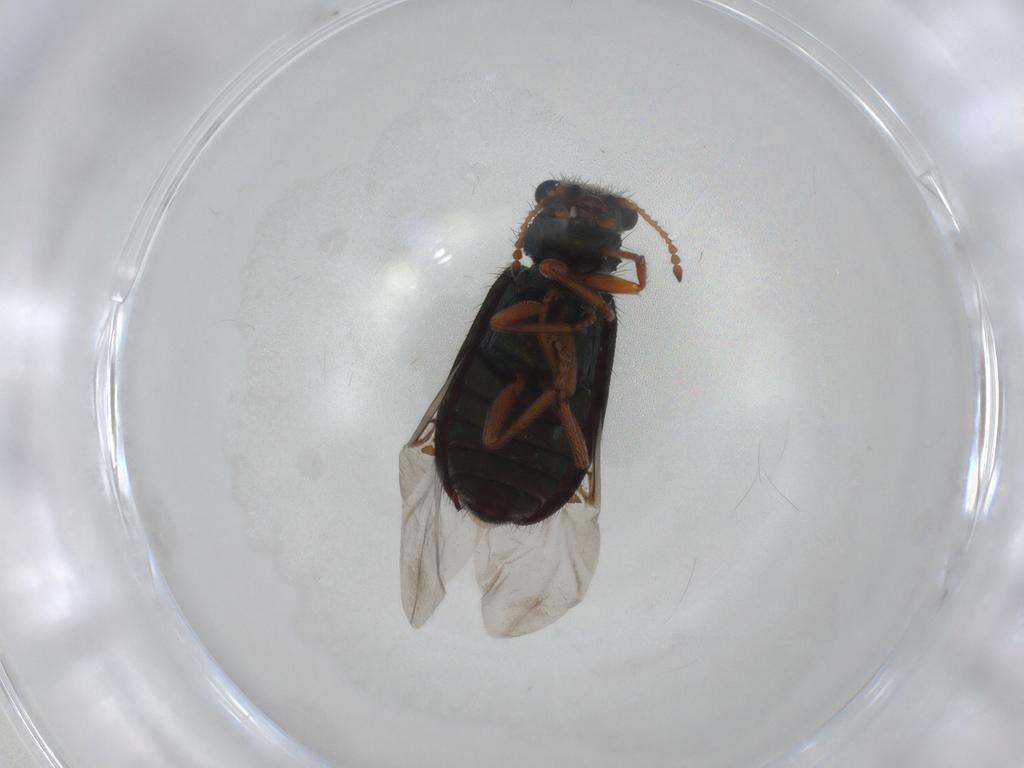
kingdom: Animalia
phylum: Arthropoda
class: Insecta
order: Coleoptera
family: Melyridae
